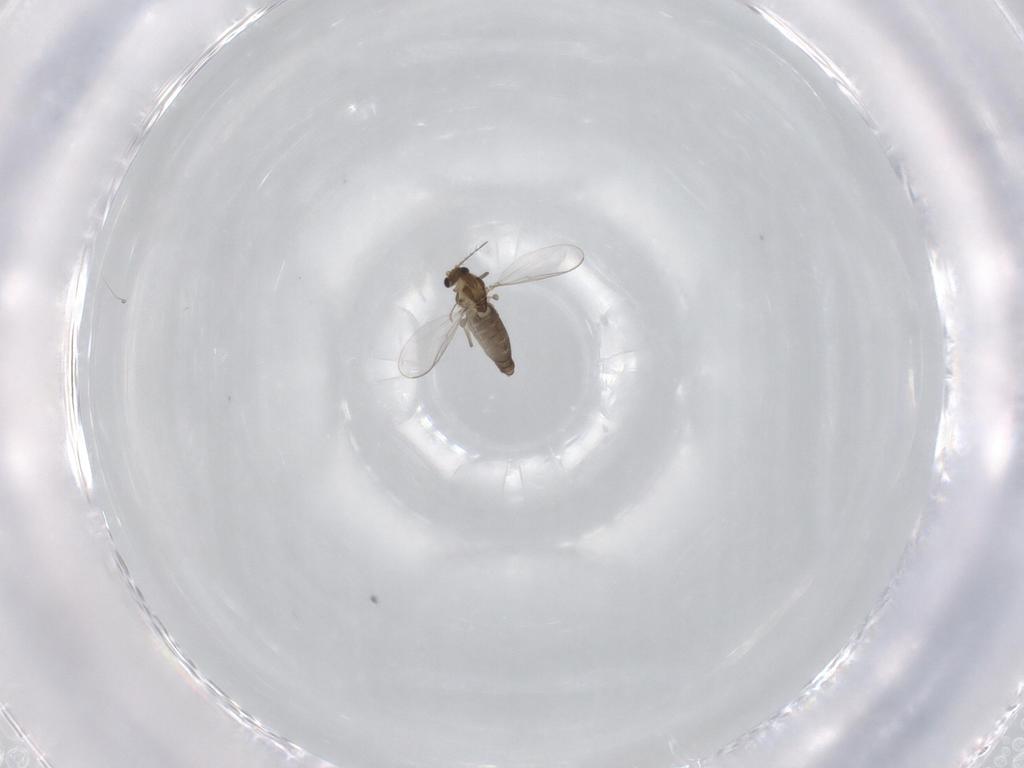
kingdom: Animalia
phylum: Arthropoda
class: Insecta
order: Diptera
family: Chironomidae
